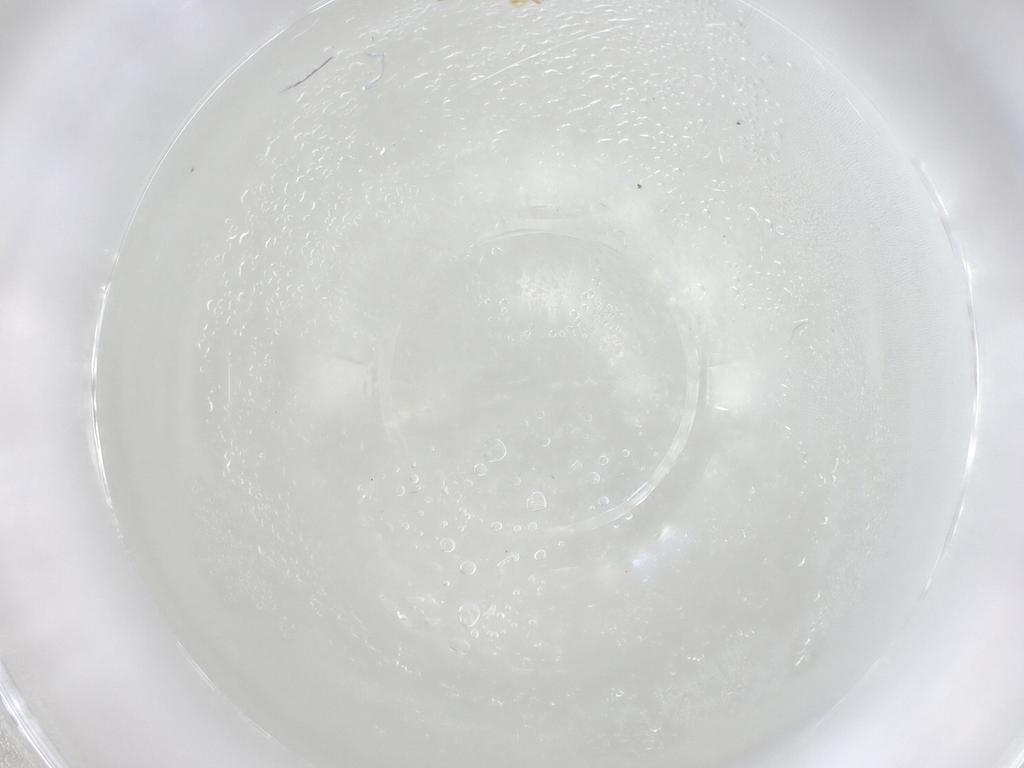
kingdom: Animalia
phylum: Arthropoda
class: Insecta
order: Thysanoptera
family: Thripidae
